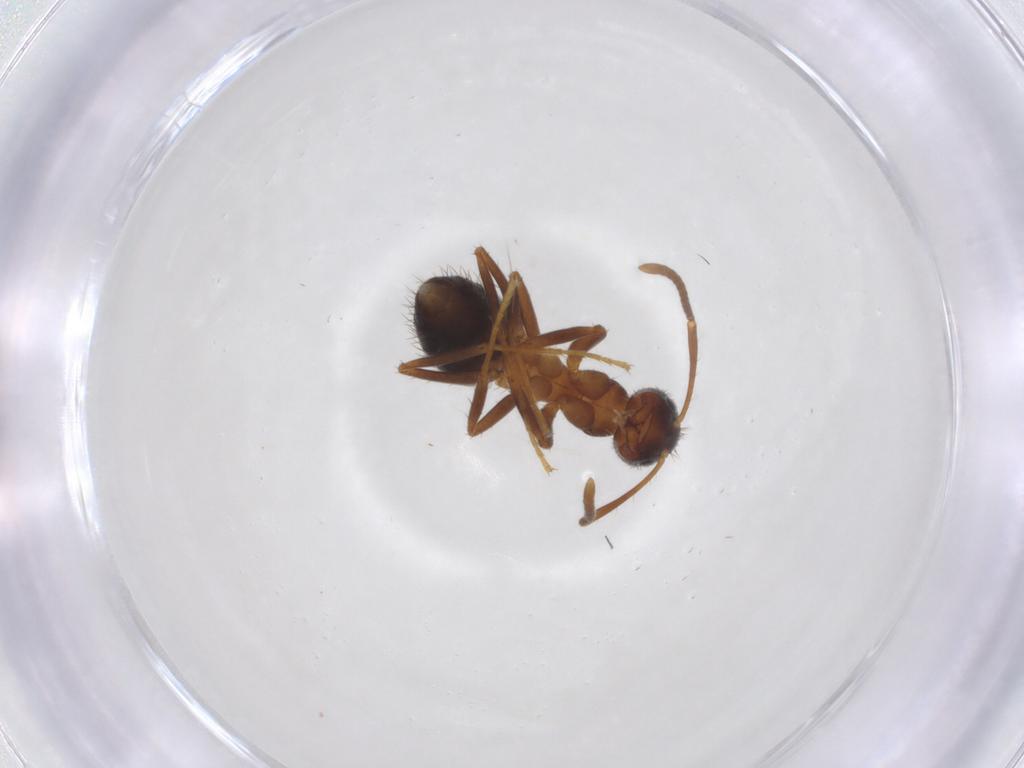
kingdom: Animalia
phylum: Arthropoda
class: Insecta
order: Hymenoptera
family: Formicidae
